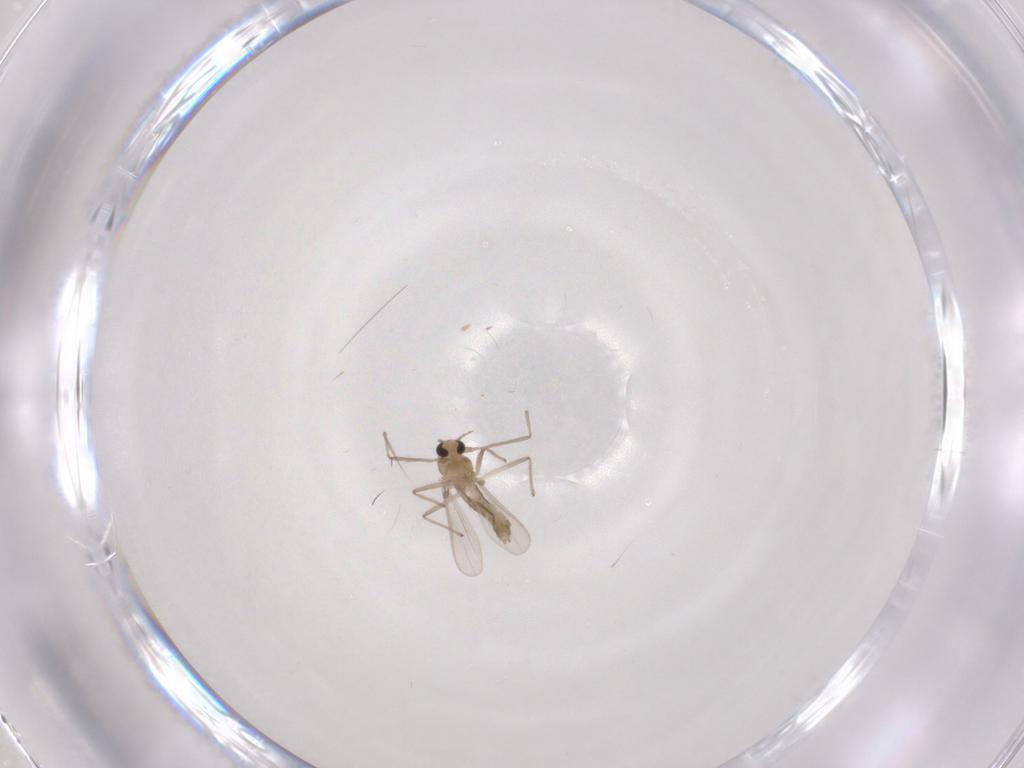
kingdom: Animalia
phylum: Arthropoda
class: Insecta
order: Diptera
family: Chironomidae
